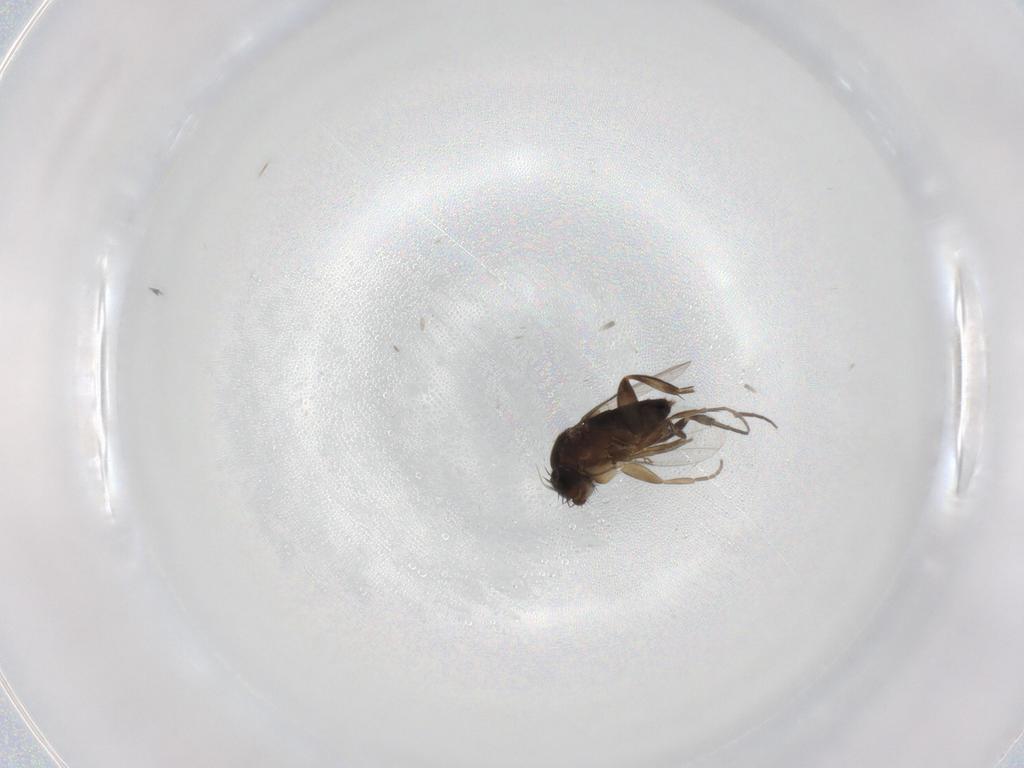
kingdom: Animalia
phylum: Arthropoda
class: Insecta
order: Diptera
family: Phoridae
